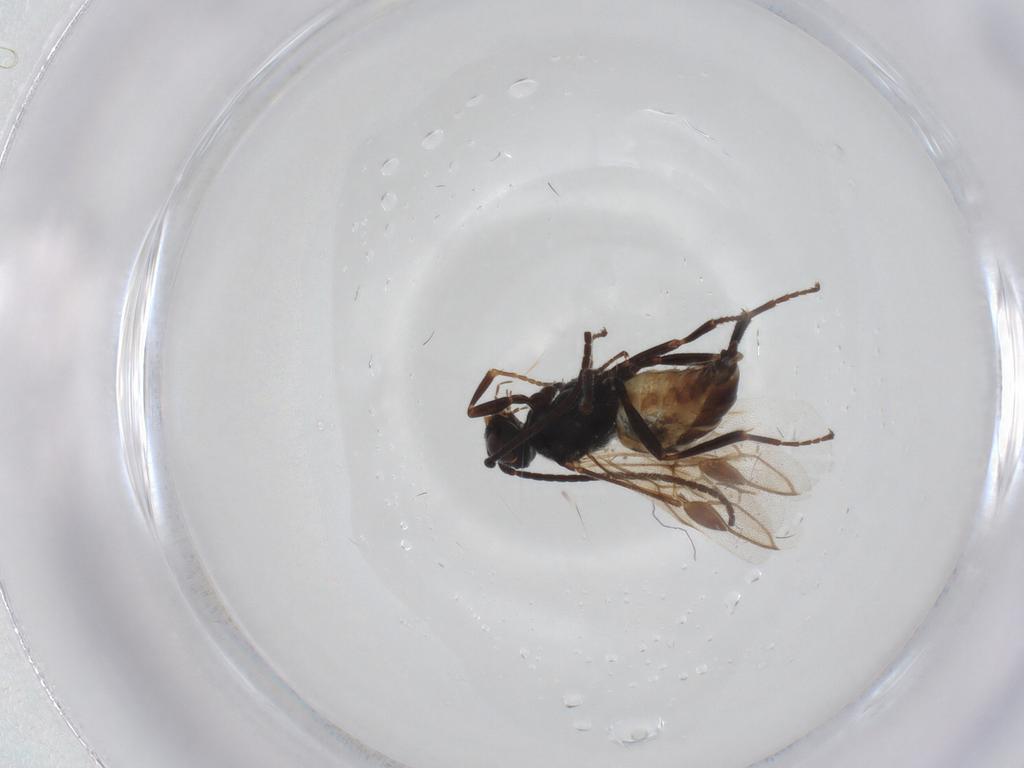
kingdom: Animalia
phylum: Arthropoda
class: Insecta
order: Hymenoptera
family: Braconidae
